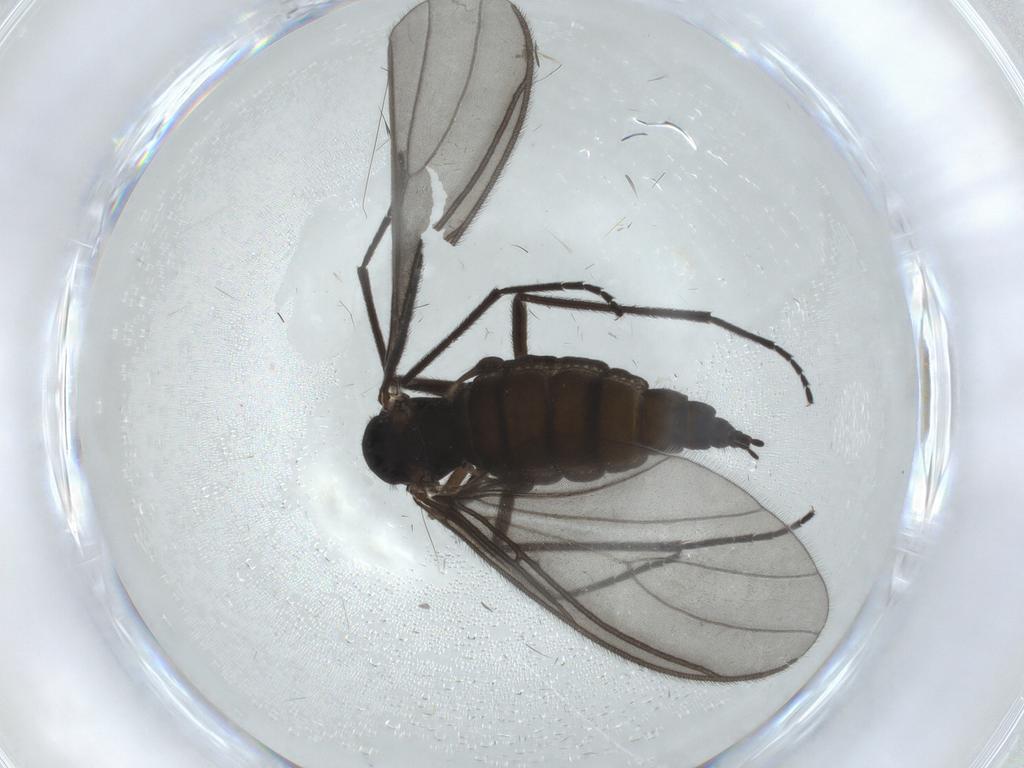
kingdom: Animalia
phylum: Arthropoda
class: Insecta
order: Diptera
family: Sciaridae
